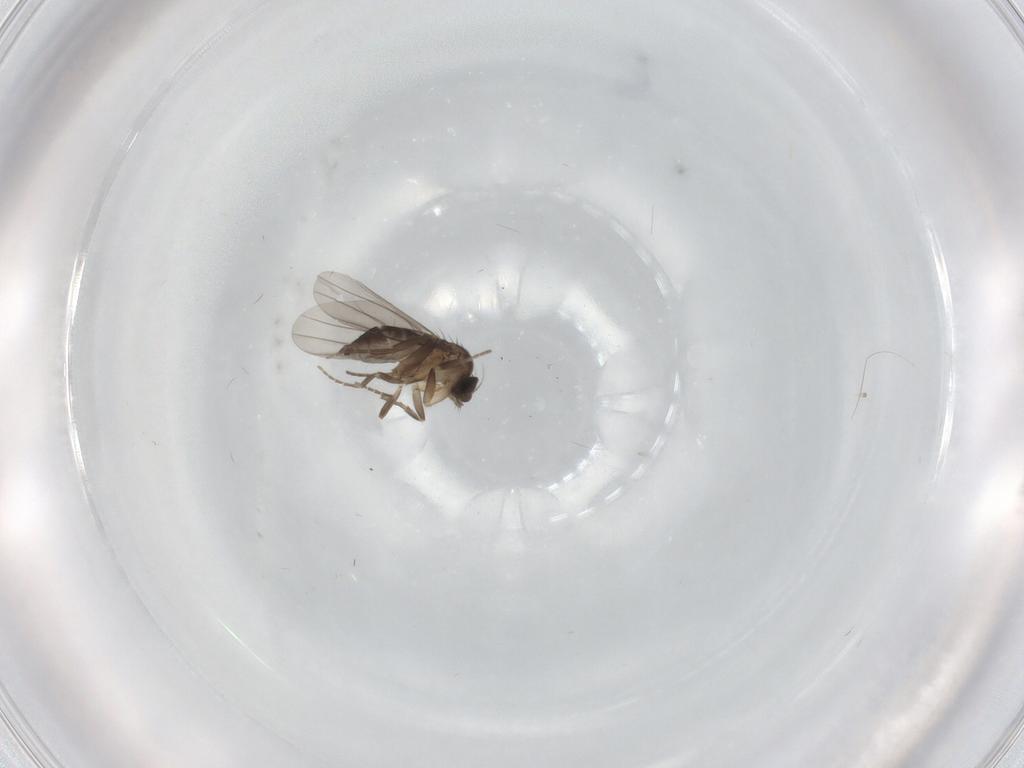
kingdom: Animalia
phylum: Arthropoda
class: Insecta
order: Diptera
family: Phoridae
